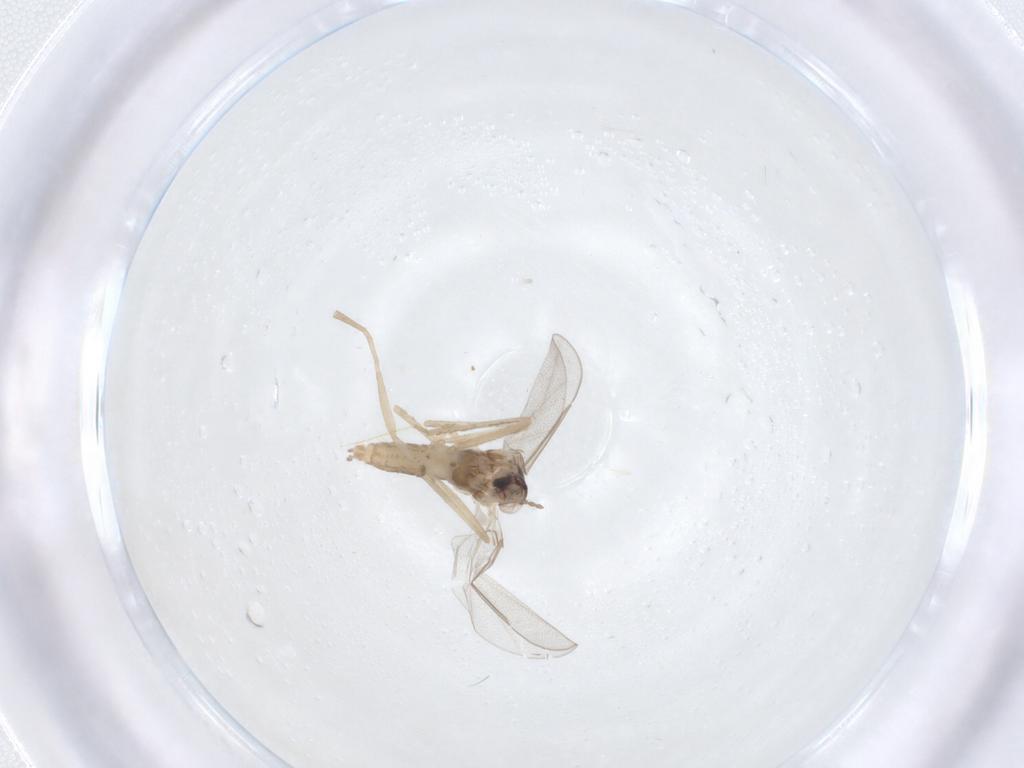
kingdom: Animalia
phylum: Arthropoda
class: Insecta
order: Diptera
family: Cecidomyiidae
